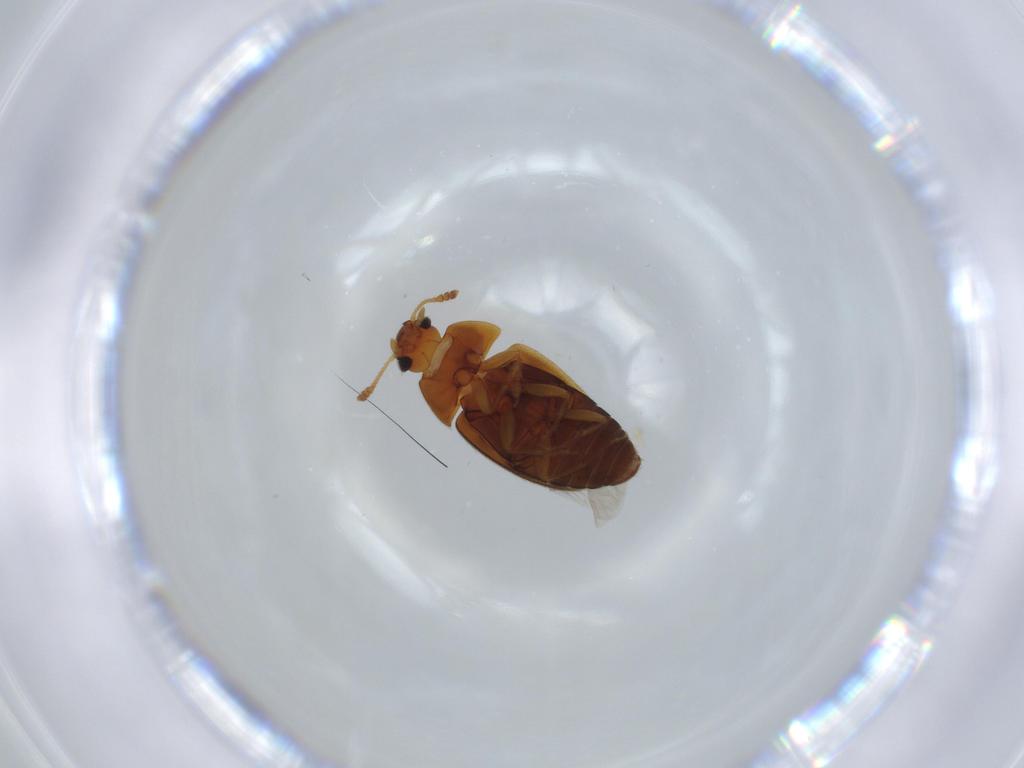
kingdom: Animalia
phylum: Arthropoda
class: Insecta
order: Coleoptera
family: Mycetophagidae
